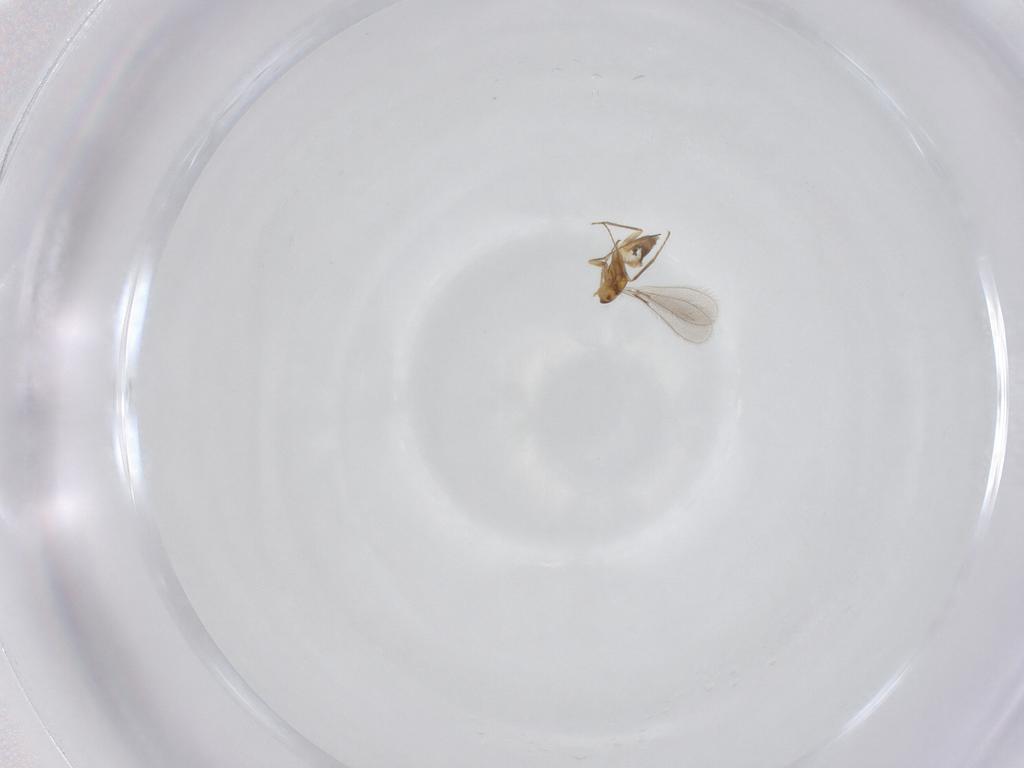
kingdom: Animalia
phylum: Arthropoda
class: Insecta
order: Hymenoptera
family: Mymaridae
